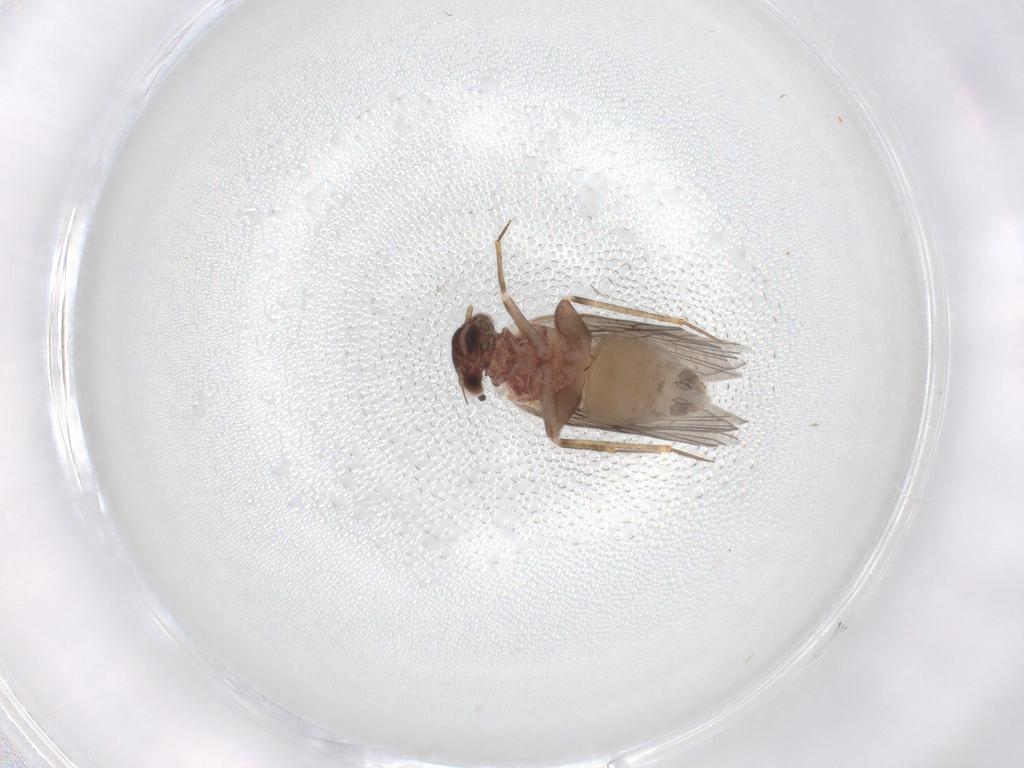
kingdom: Animalia
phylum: Arthropoda
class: Insecta
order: Psocodea
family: Lepidopsocidae
